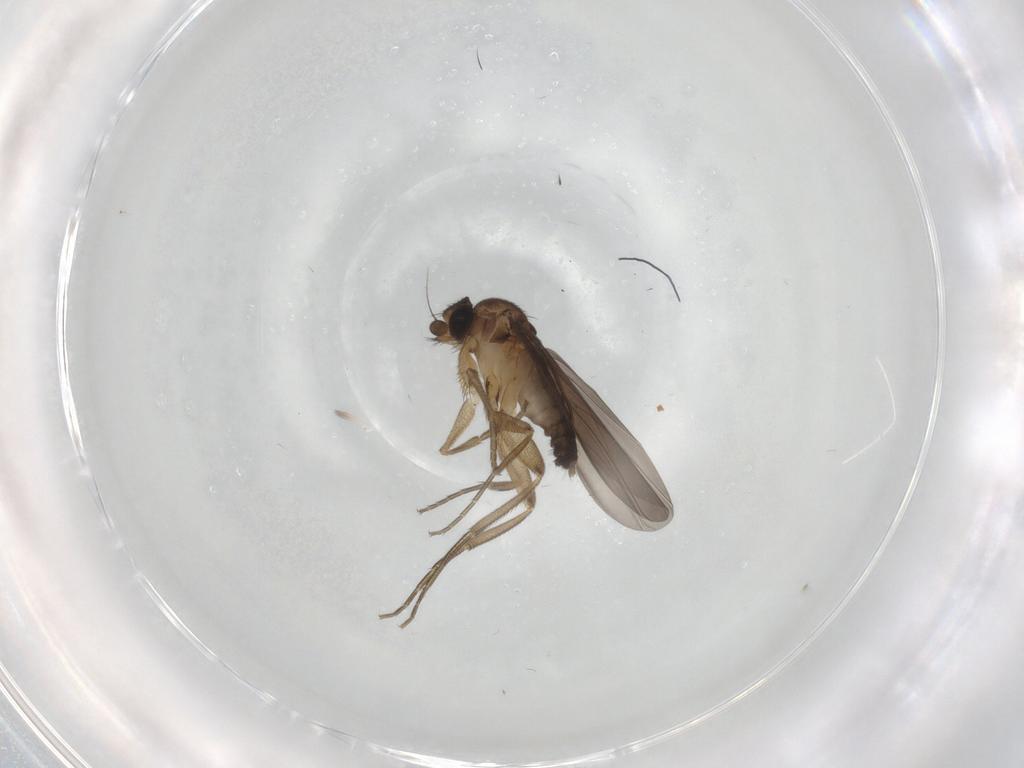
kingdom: Animalia
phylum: Arthropoda
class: Insecta
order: Diptera
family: Phoridae
